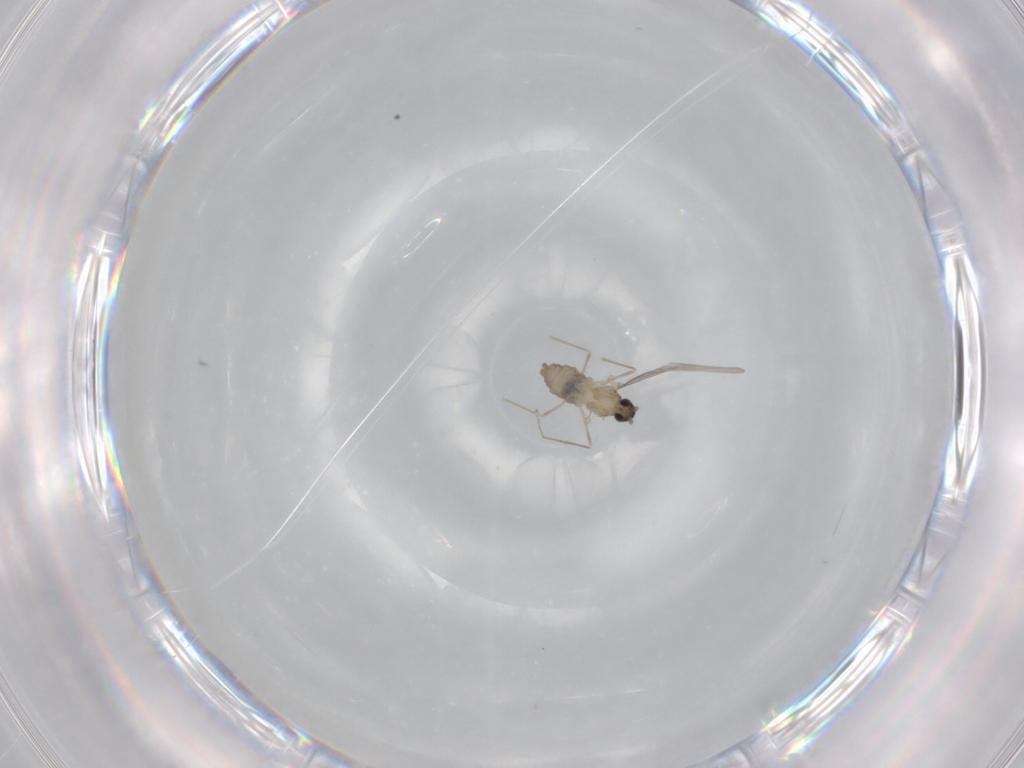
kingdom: Animalia
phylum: Arthropoda
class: Insecta
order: Diptera
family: Cecidomyiidae
